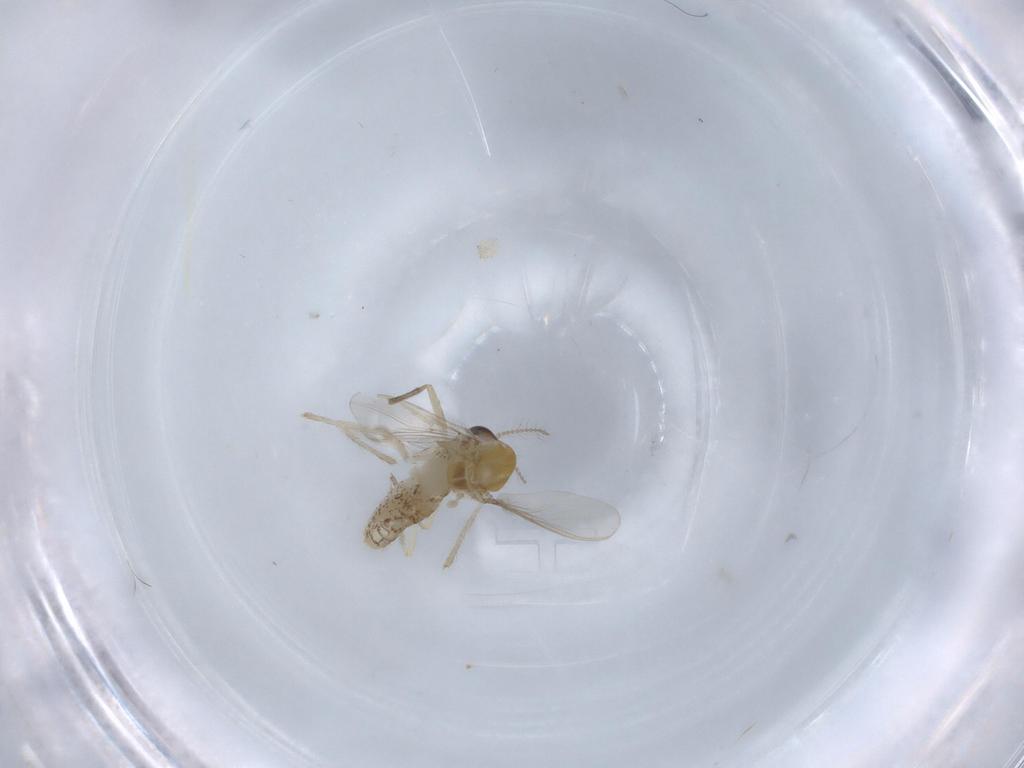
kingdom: Animalia
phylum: Arthropoda
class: Insecta
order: Diptera
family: Chironomidae
